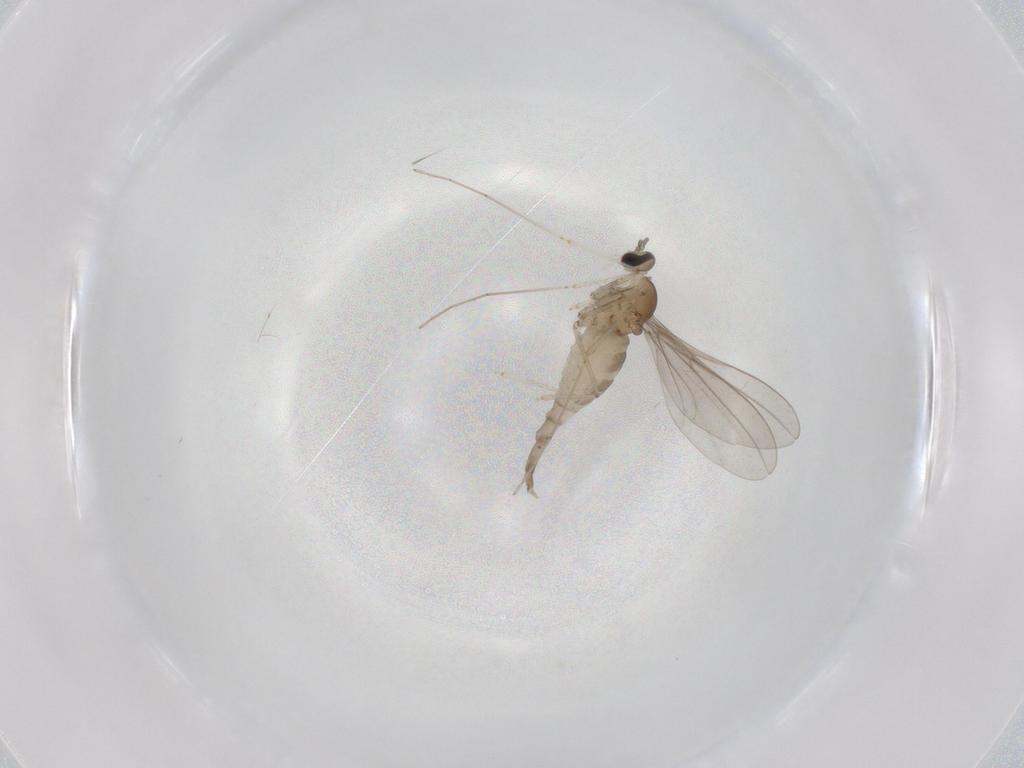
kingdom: Animalia
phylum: Arthropoda
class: Insecta
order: Diptera
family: Cecidomyiidae
